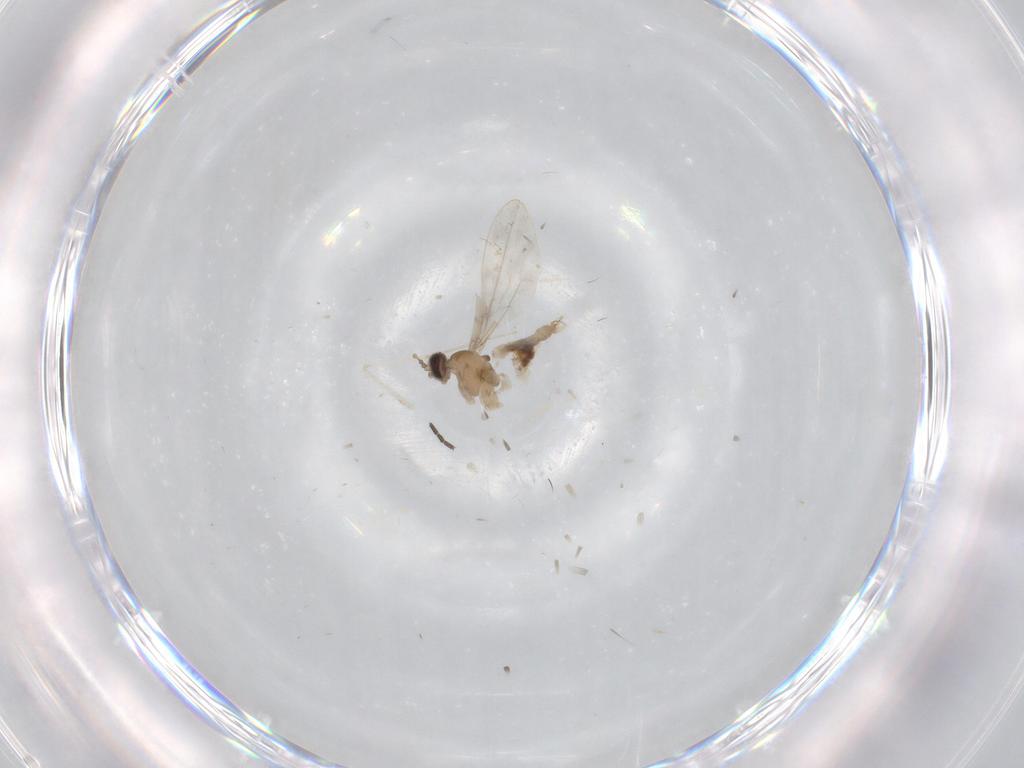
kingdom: Animalia
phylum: Arthropoda
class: Insecta
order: Diptera
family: Cecidomyiidae
